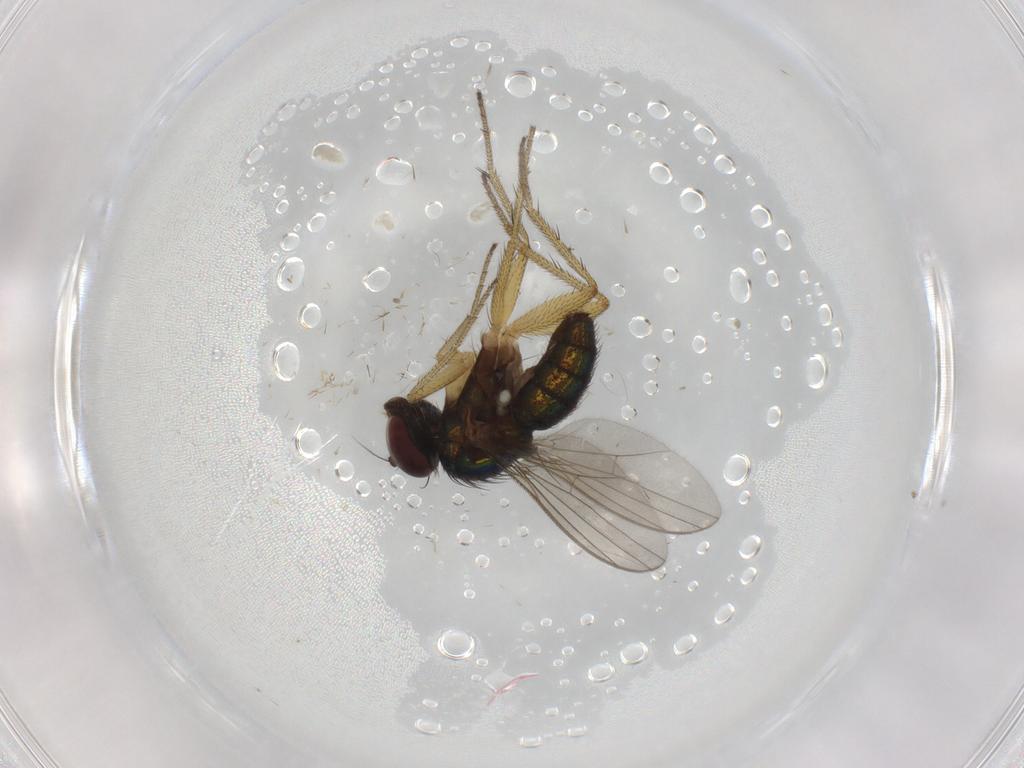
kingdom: Animalia
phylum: Arthropoda
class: Insecta
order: Diptera
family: Dolichopodidae
